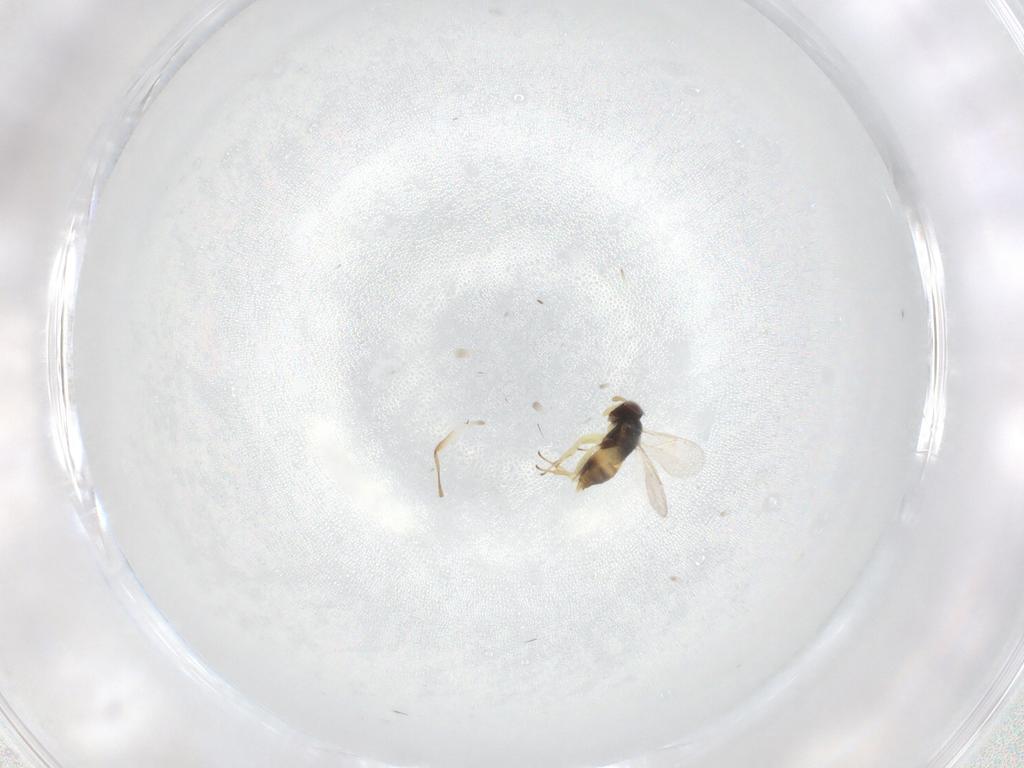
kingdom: Animalia
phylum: Arthropoda
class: Insecta
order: Hymenoptera
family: Aphelinidae
